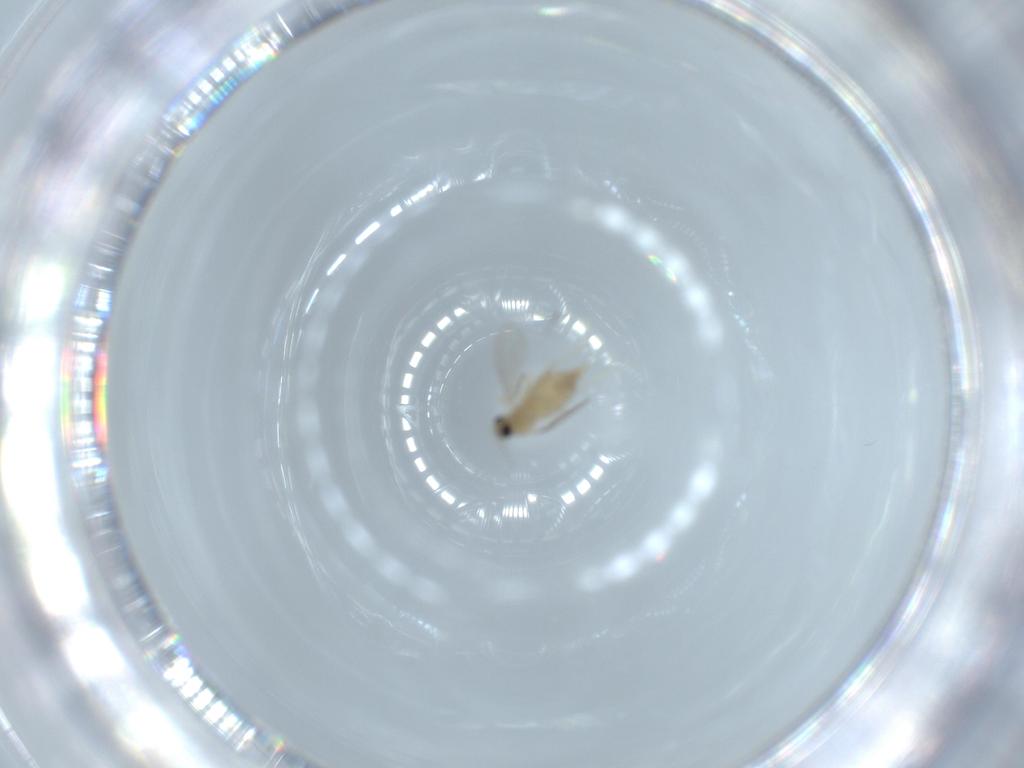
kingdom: Animalia
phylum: Arthropoda
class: Insecta
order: Diptera
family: Cecidomyiidae
